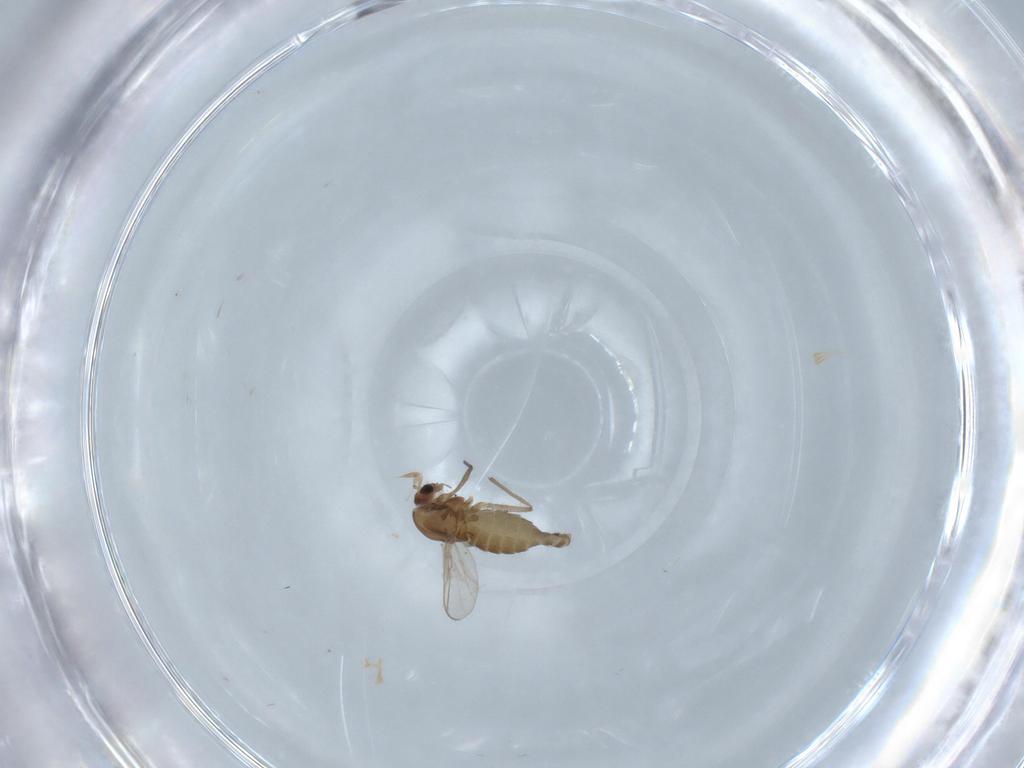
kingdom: Animalia
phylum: Arthropoda
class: Insecta
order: Diptera
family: Chironomidae
